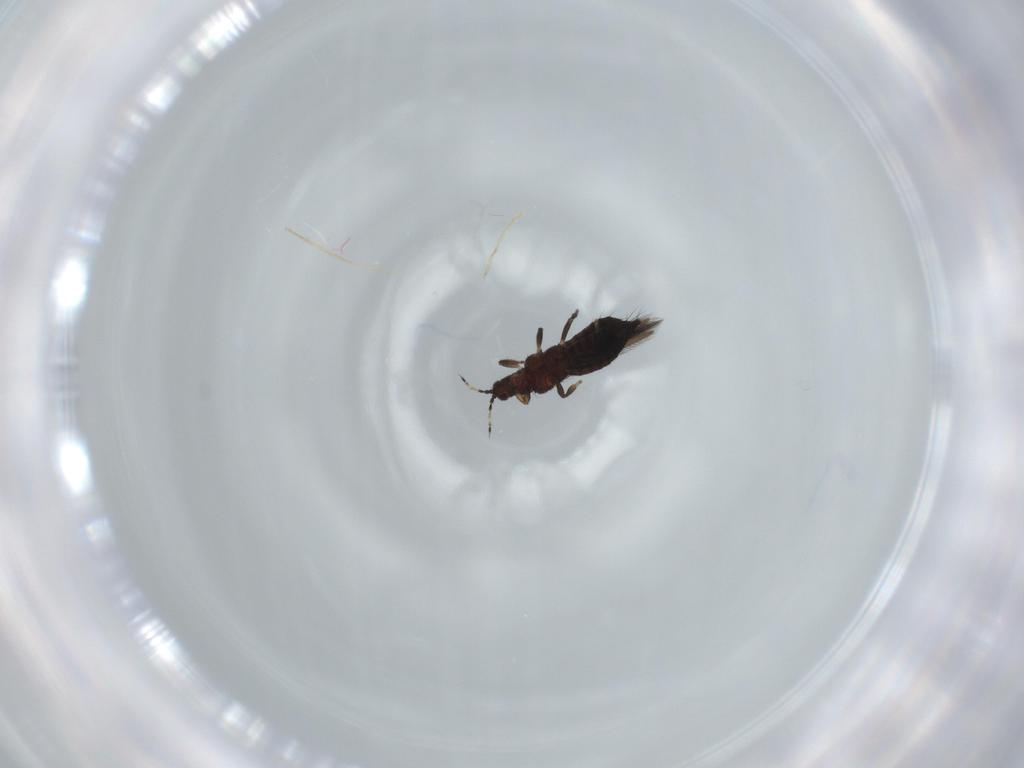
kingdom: Animalia
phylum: Arthropoda
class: Insecta
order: Thysanoptera
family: Thripidae
